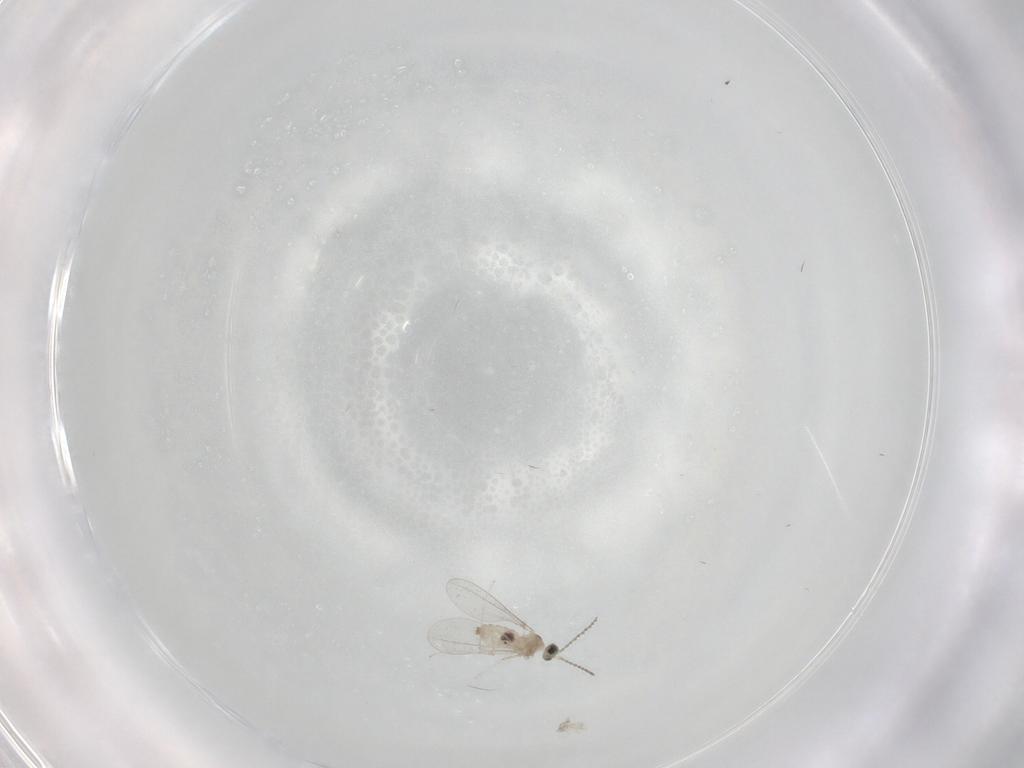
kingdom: Animalia
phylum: Arthropoda
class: Insecta
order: Diptera
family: Cecidomyiidae
